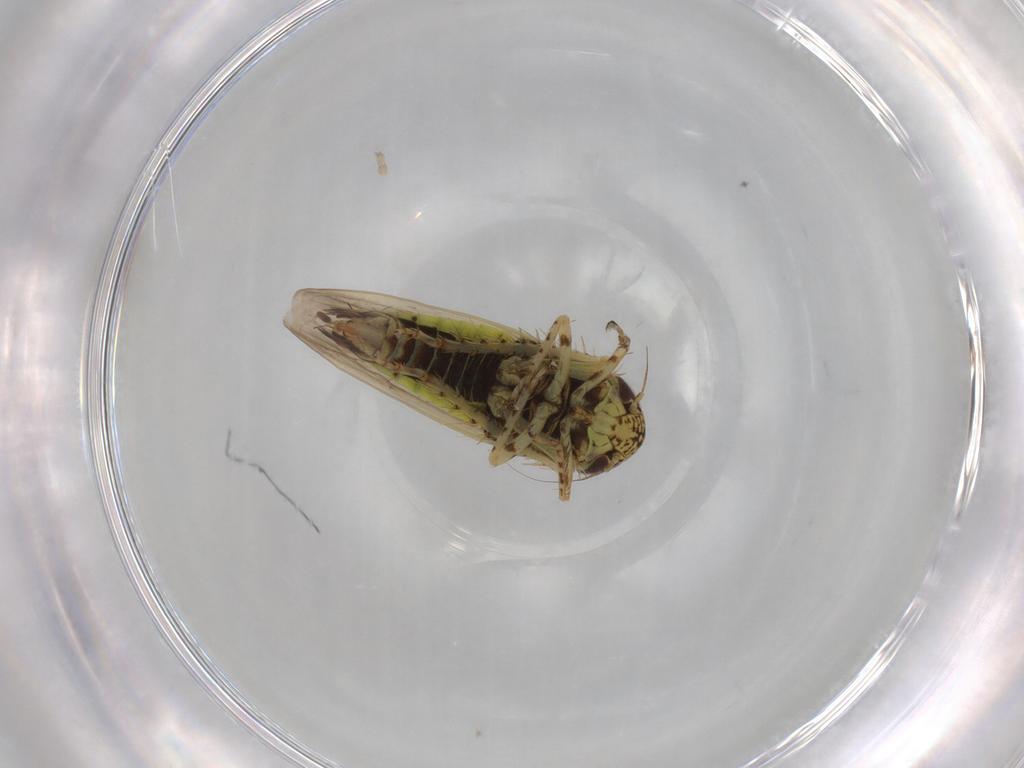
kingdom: Animalia
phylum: Arthropoda
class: Insecta
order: Hemiptera
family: Cicadellidae
